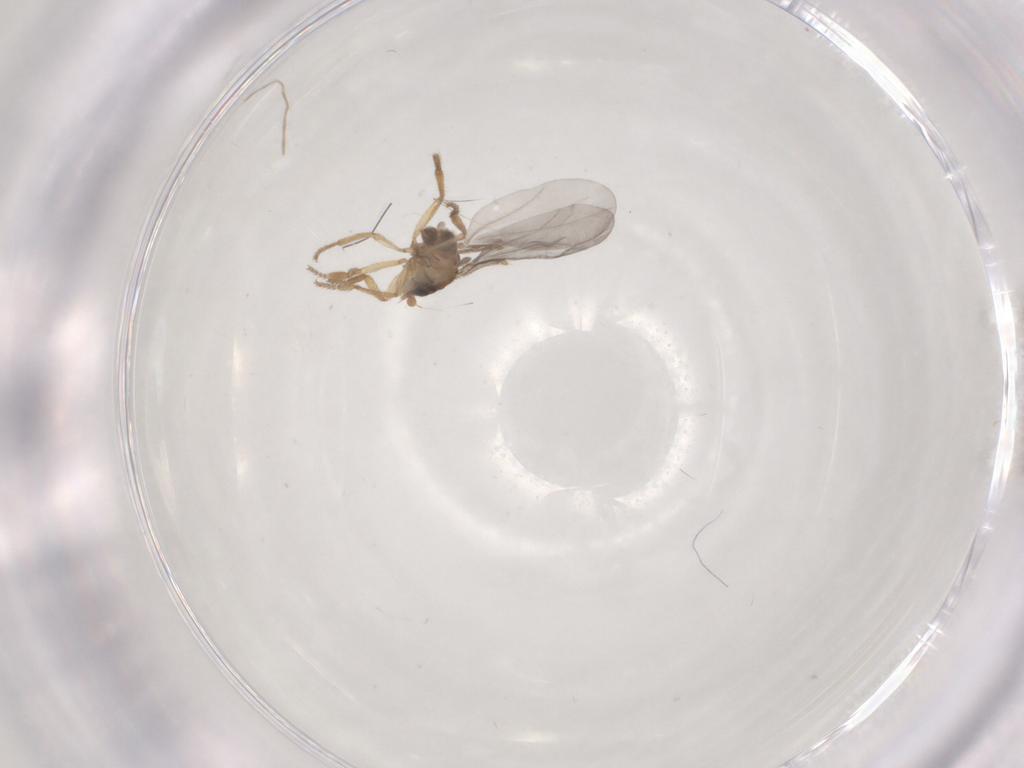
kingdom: Animalia
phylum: Arthropoda
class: Insecta
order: Diptera
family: Phoridae
